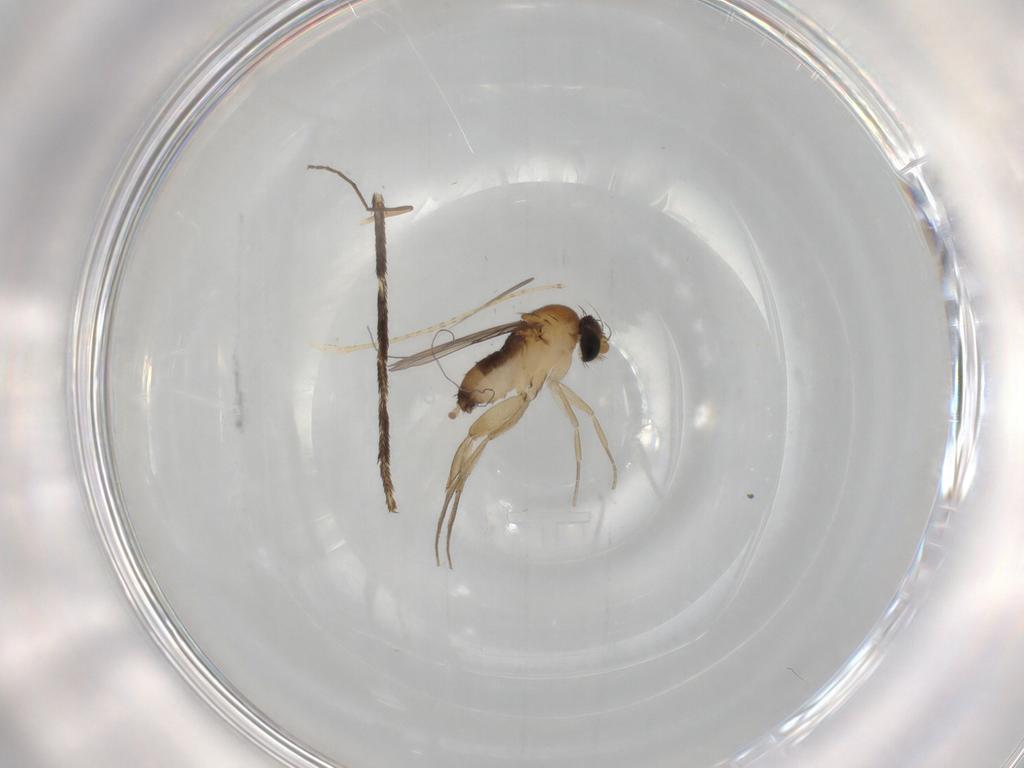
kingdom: Animalia
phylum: Arthropoda
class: Insecta
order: Diptera
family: Phoridae
